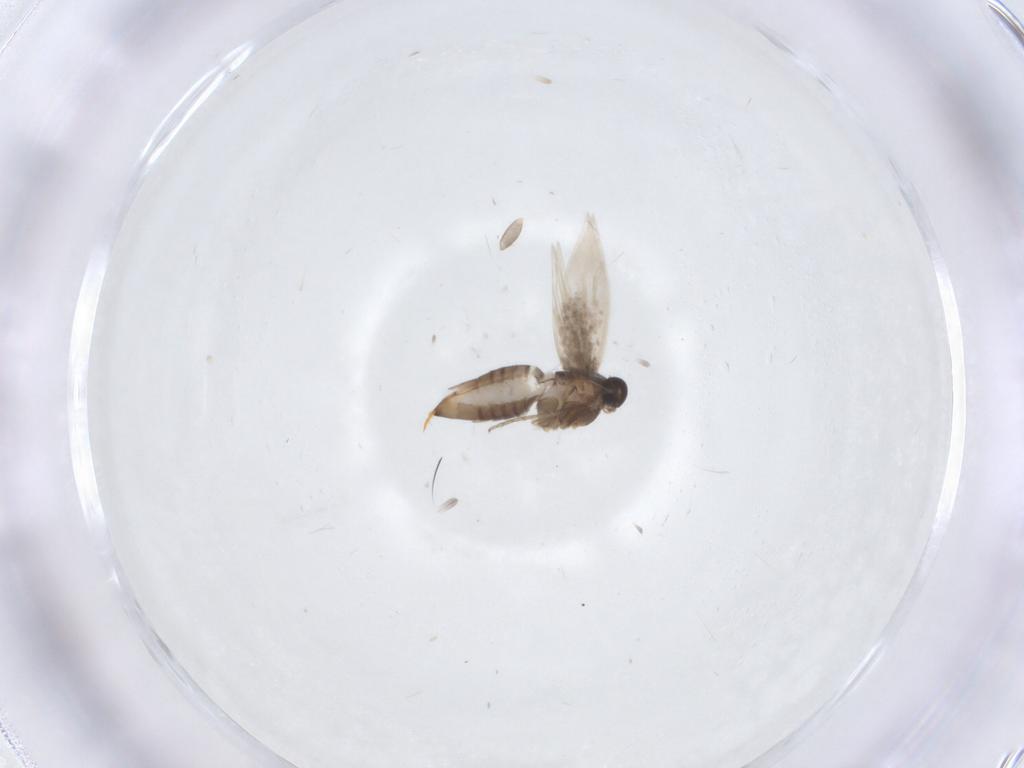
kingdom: Animalia
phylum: Arthropoda
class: Insecta
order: Lepidoptera
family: Heliozelidae
